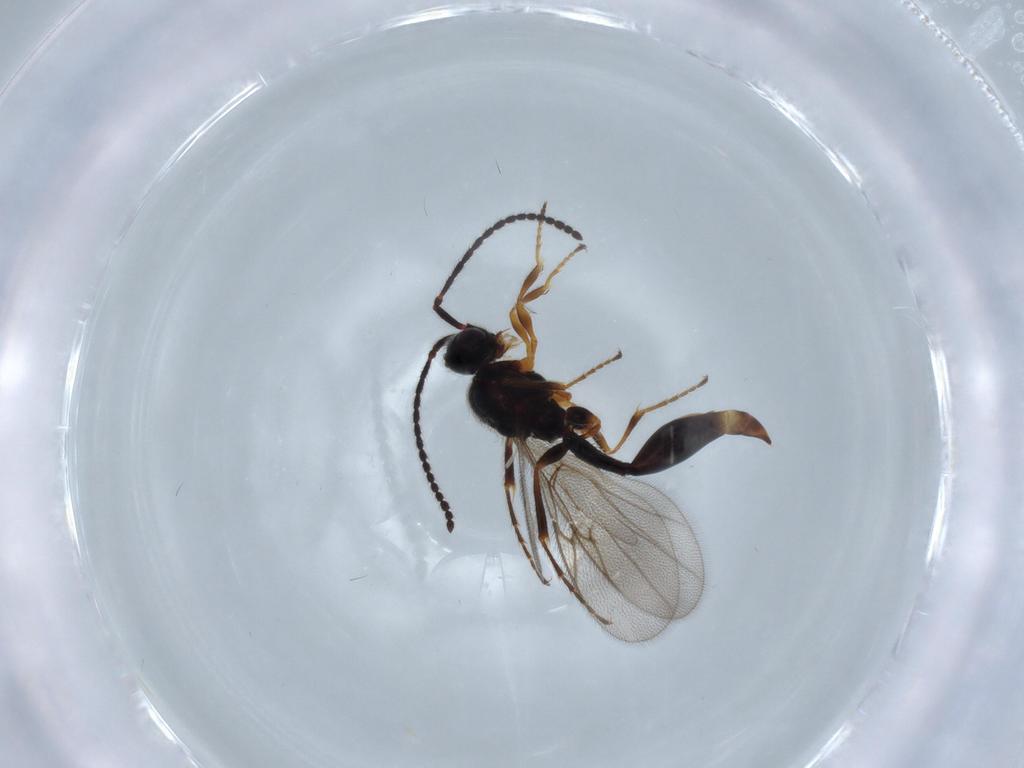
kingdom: Animalia
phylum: Arthropoda
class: Insecta
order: Hymenoptera
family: Diapriidae
